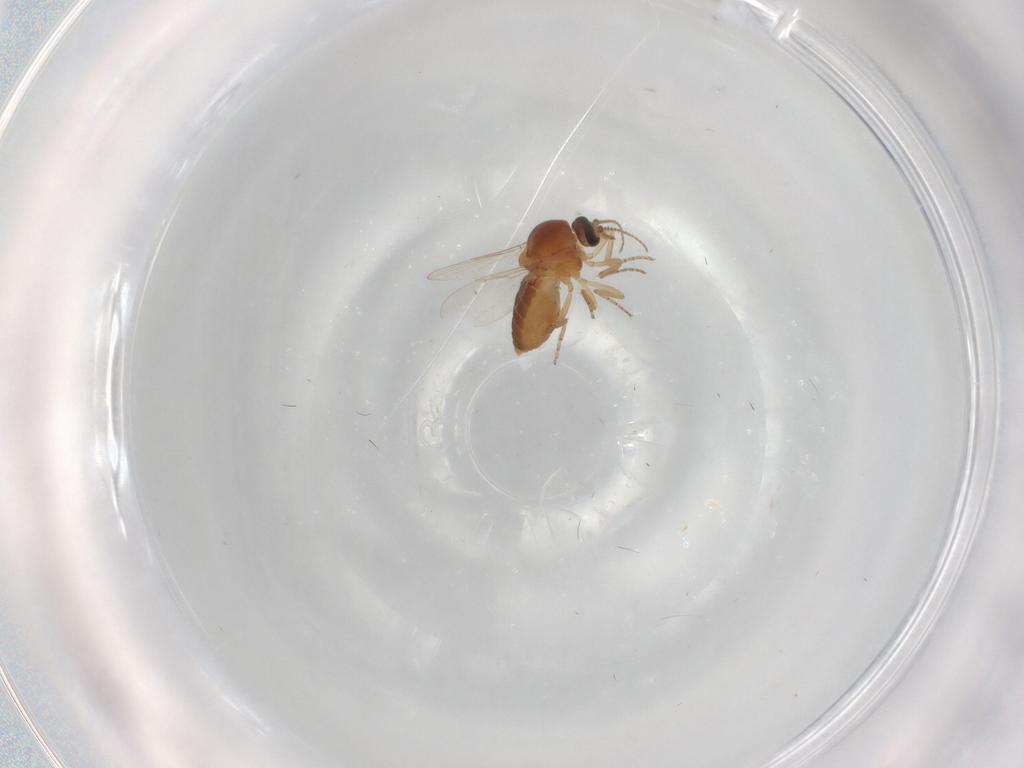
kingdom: Animalia
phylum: Arthropoda
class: Insecta
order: Diptera
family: Ceratopogonidae
